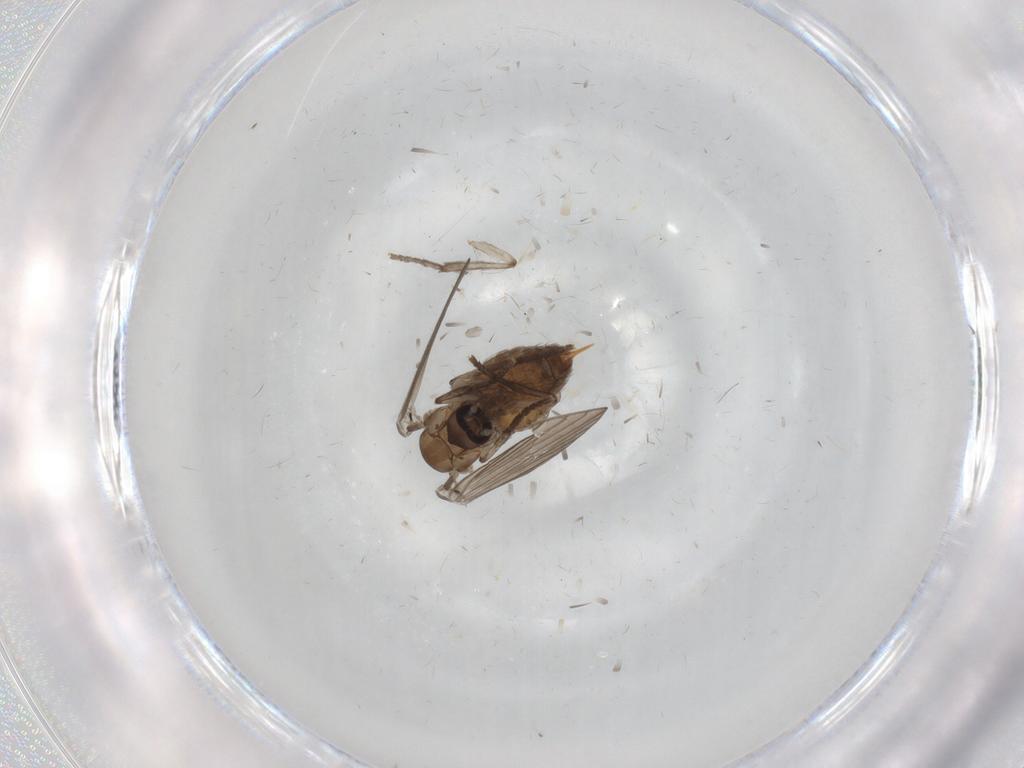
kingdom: Animalia
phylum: Arthropoda
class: Insecta
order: Diptera
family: Psychodidae
